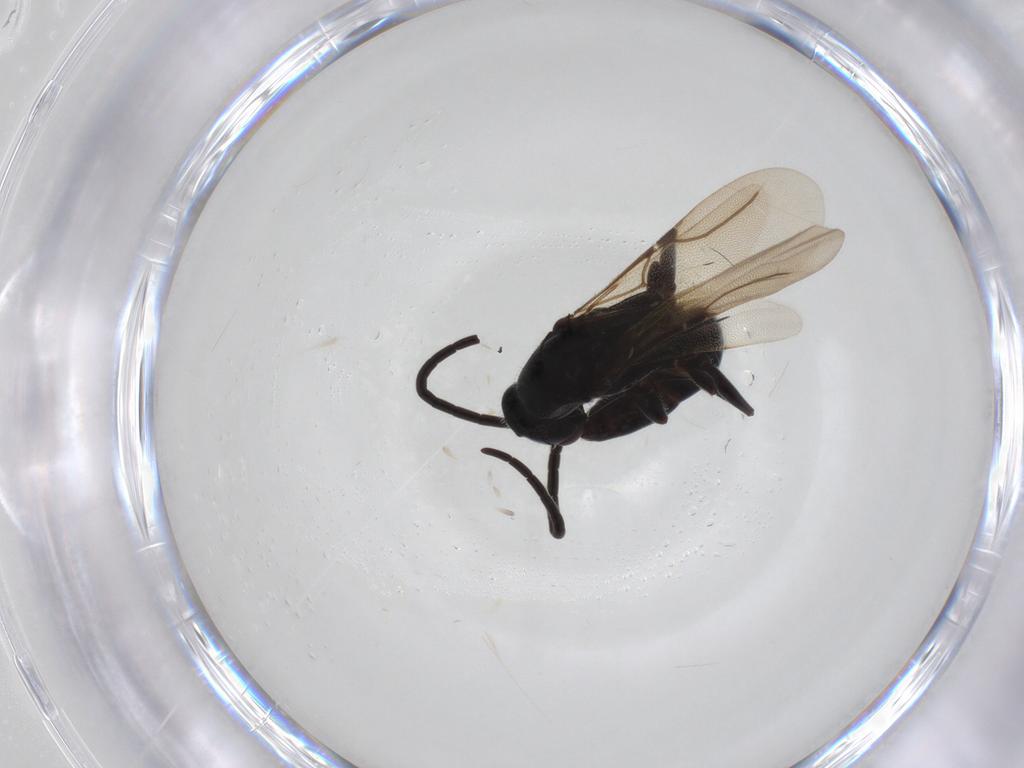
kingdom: Animalia
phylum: Arthropoda
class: Insecta
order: Hymenoptera
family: Bethylidae
